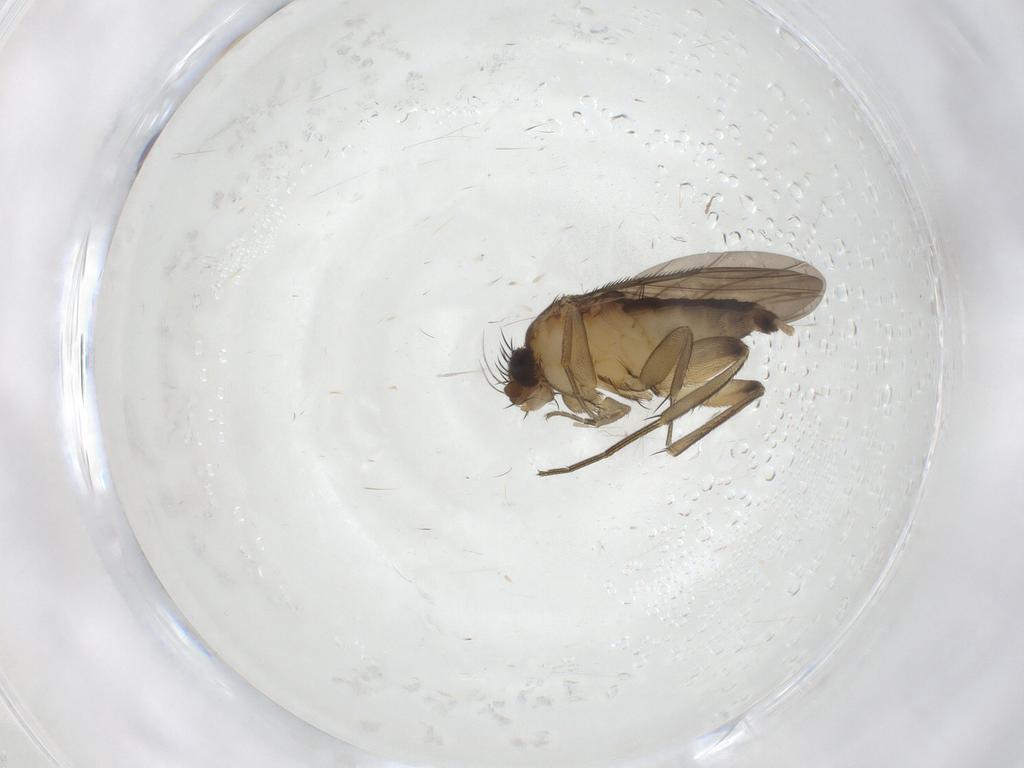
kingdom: Animalia
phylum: Arthropoda
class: Insecta
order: Diptera
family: Phoridae
